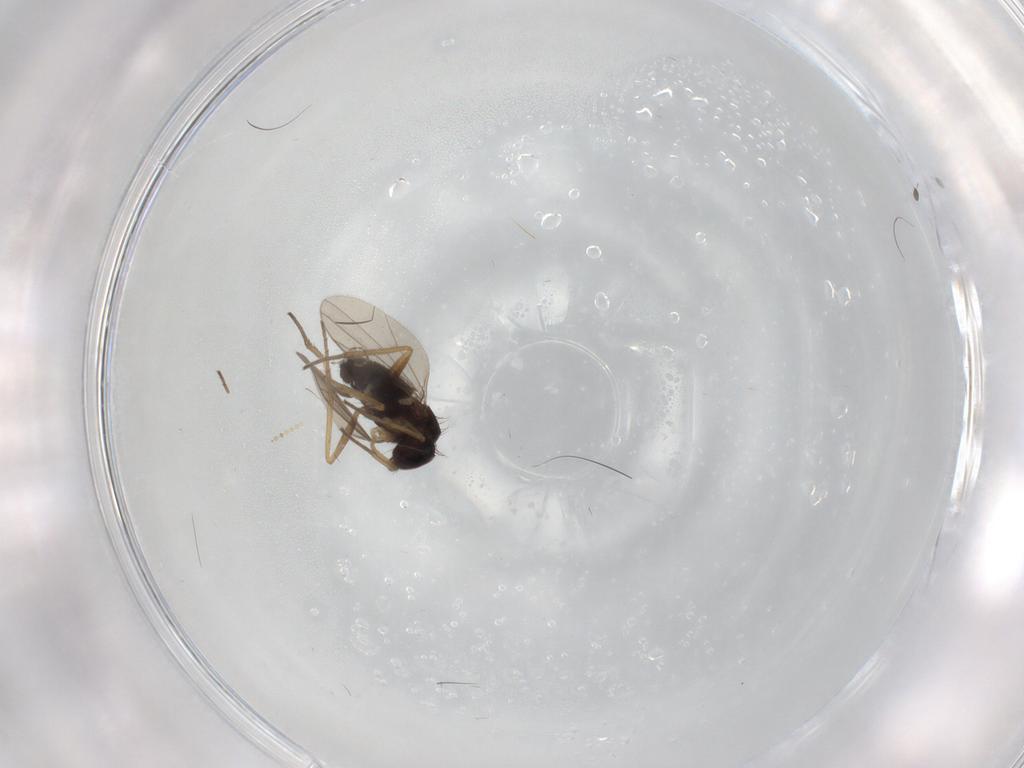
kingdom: Animalia
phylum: Arthropoda
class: Insecta
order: Diptera
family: Dolichopodidae
